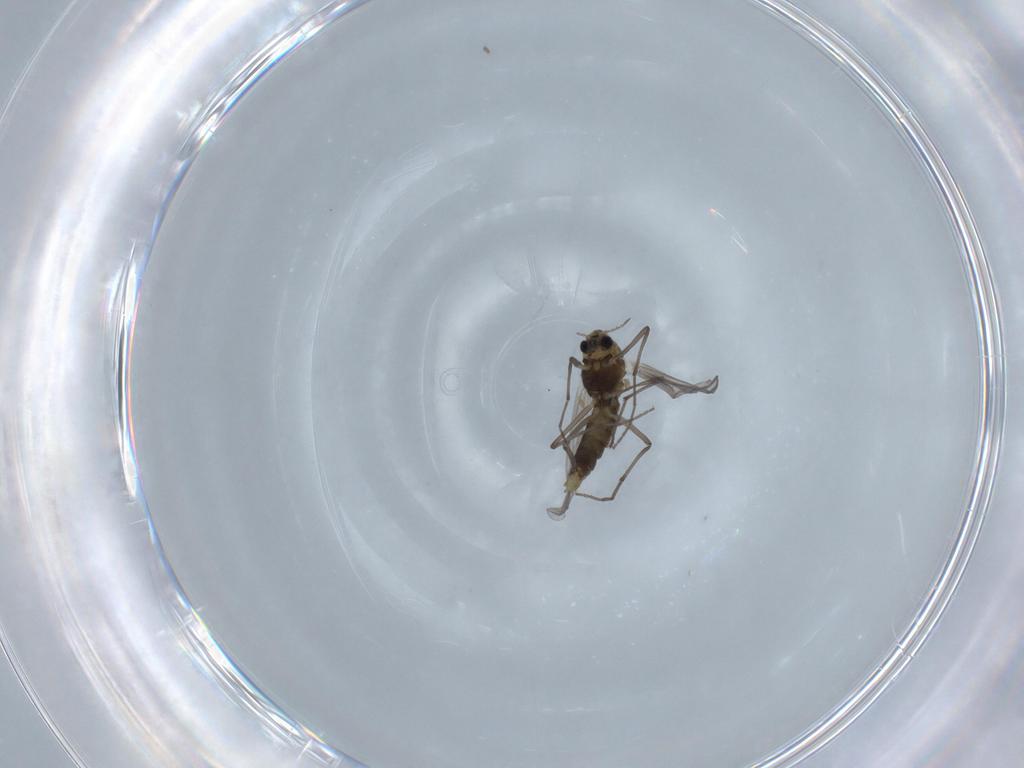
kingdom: Animalia
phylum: Arthropoda
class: Insecta
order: Diptera
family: Chironomidae
